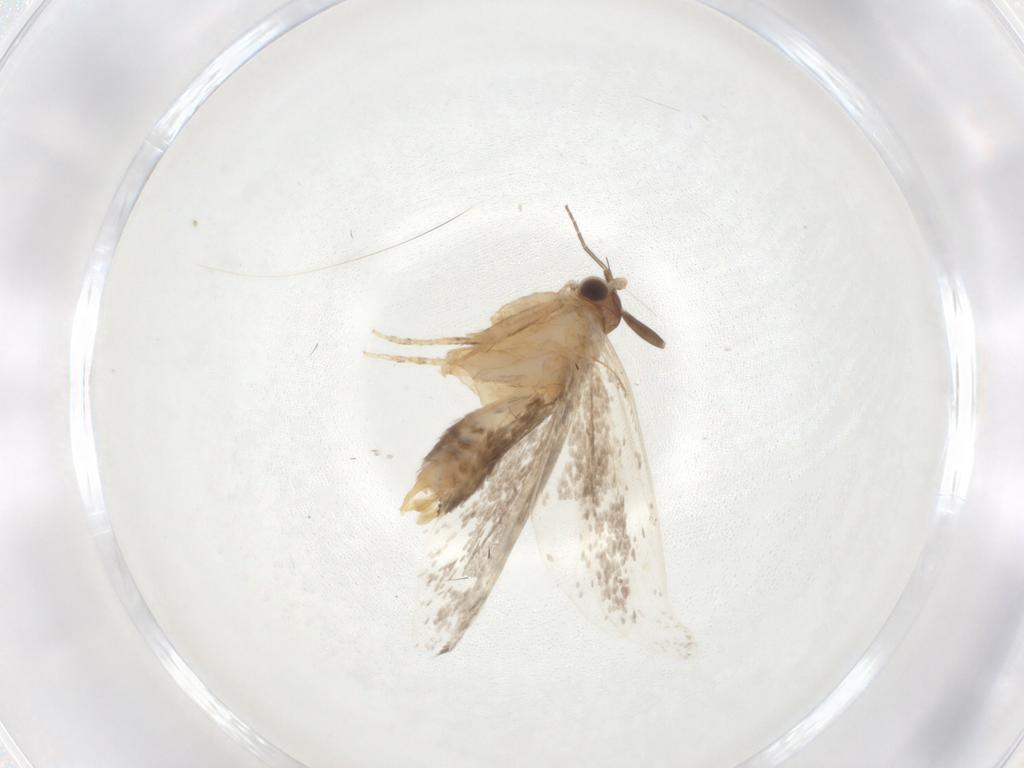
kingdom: Animalia
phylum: Arthropoda
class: Insecta
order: Lepidoptera
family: Dryadaulidae
